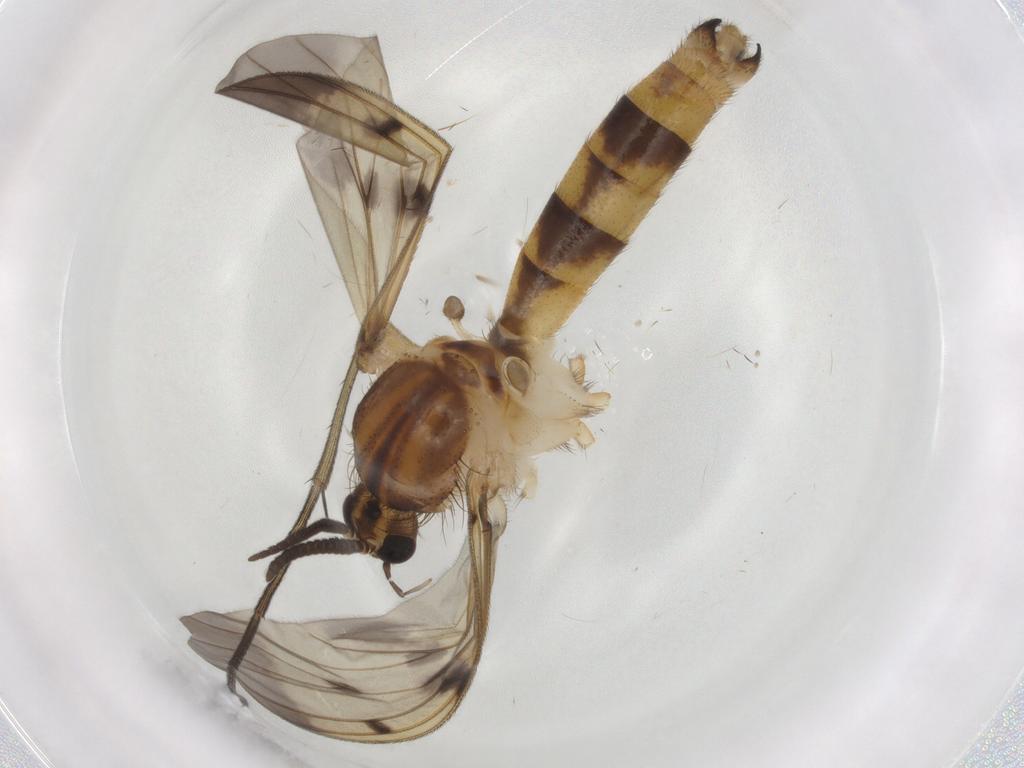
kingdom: Animalia
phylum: Arthropoda
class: Insecta
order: Diptera
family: Mycetophilidae
